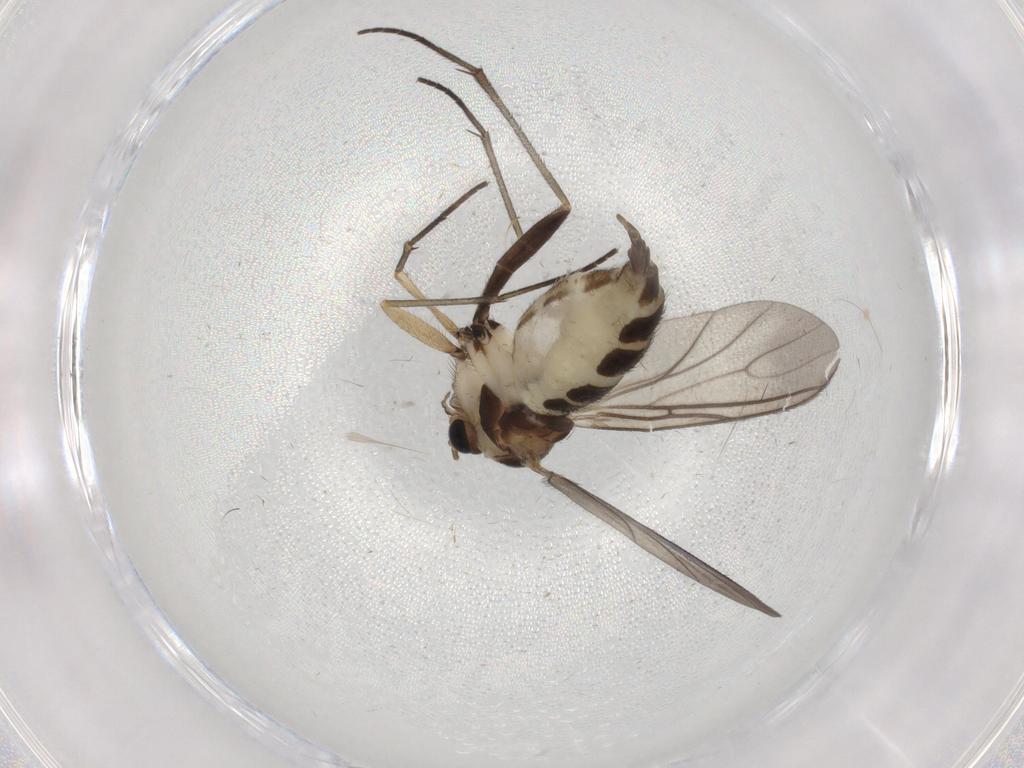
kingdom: Animalia
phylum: Arthropoda
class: Insecta
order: Diptera
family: Sciaridae
